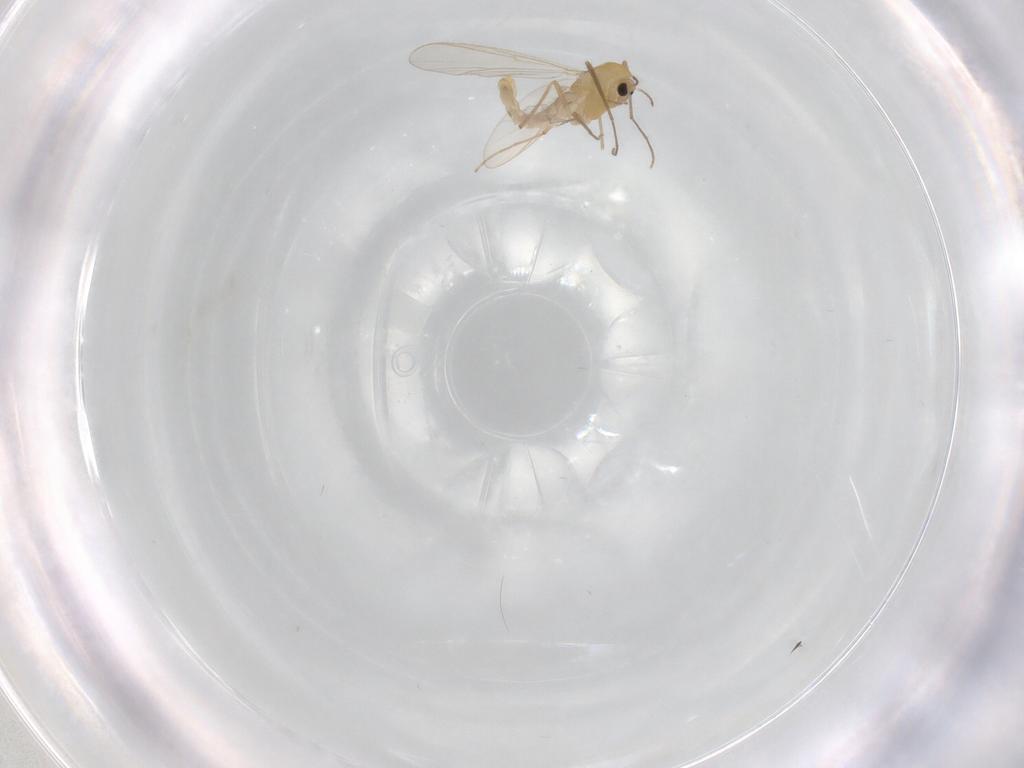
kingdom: Animalia
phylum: Arthropoda
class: Insecta
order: Diptera
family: Chironomidae
